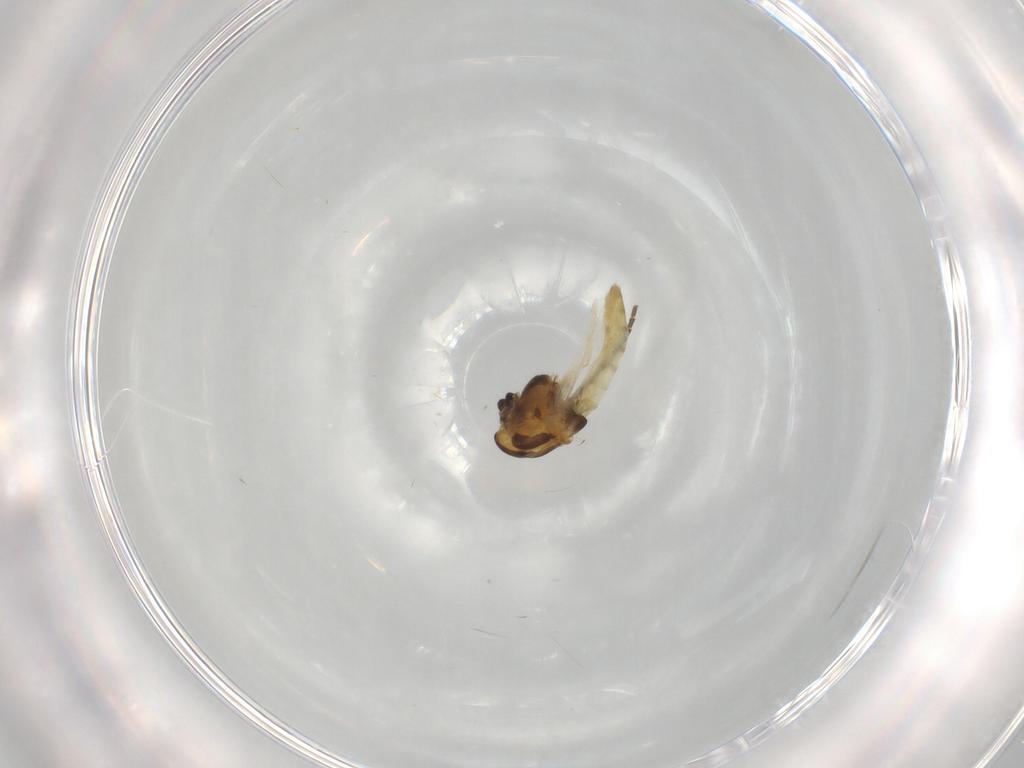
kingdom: Animalia
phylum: Arthropoda
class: Insecta
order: Diptera
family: Chironomidae
